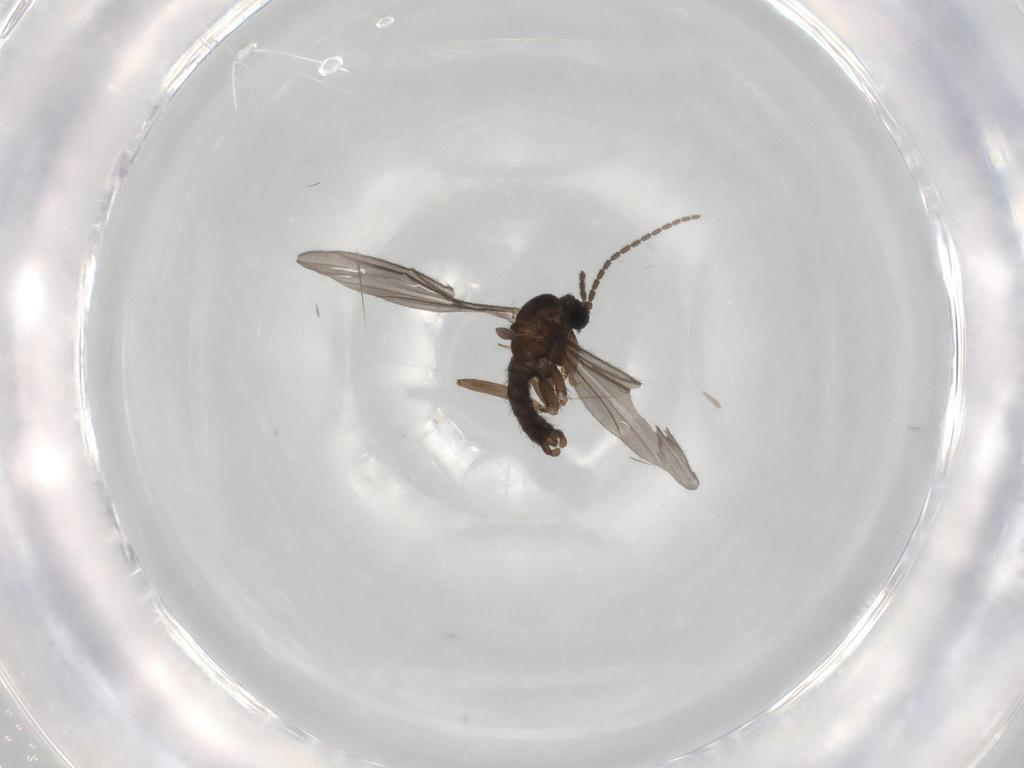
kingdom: Animalia
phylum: Arthropoda
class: Insecta
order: Diptera
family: Sciaridae
